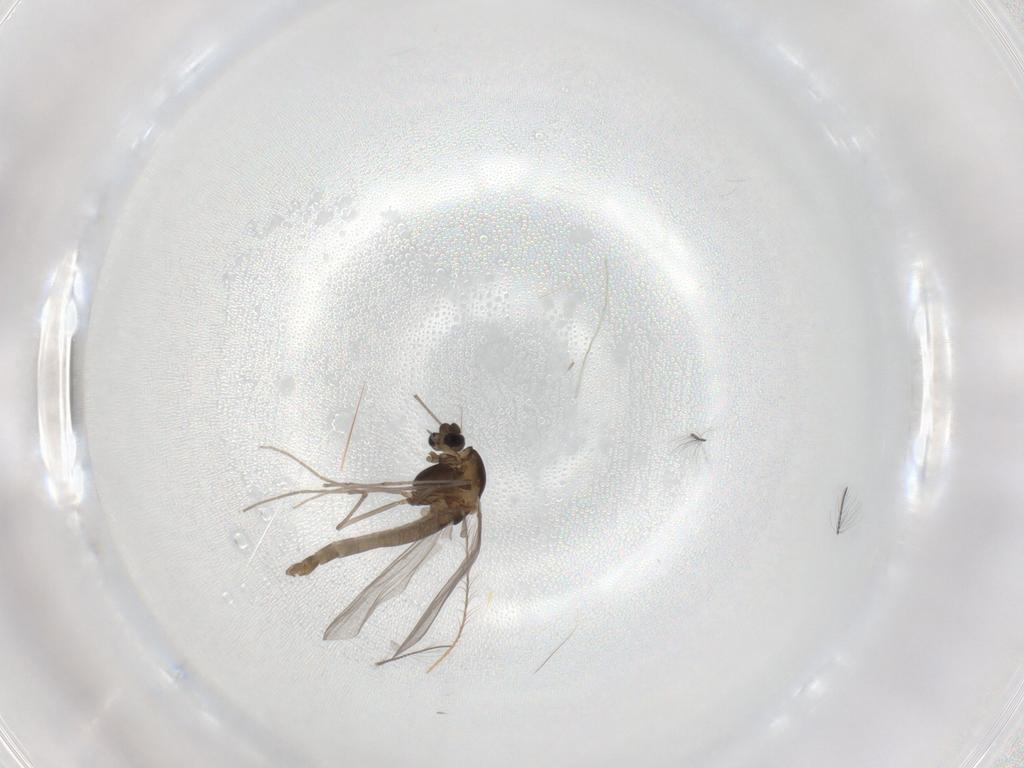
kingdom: Animalia
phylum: Arthropoda
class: Insecta
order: Diptera
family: Chironomidae
